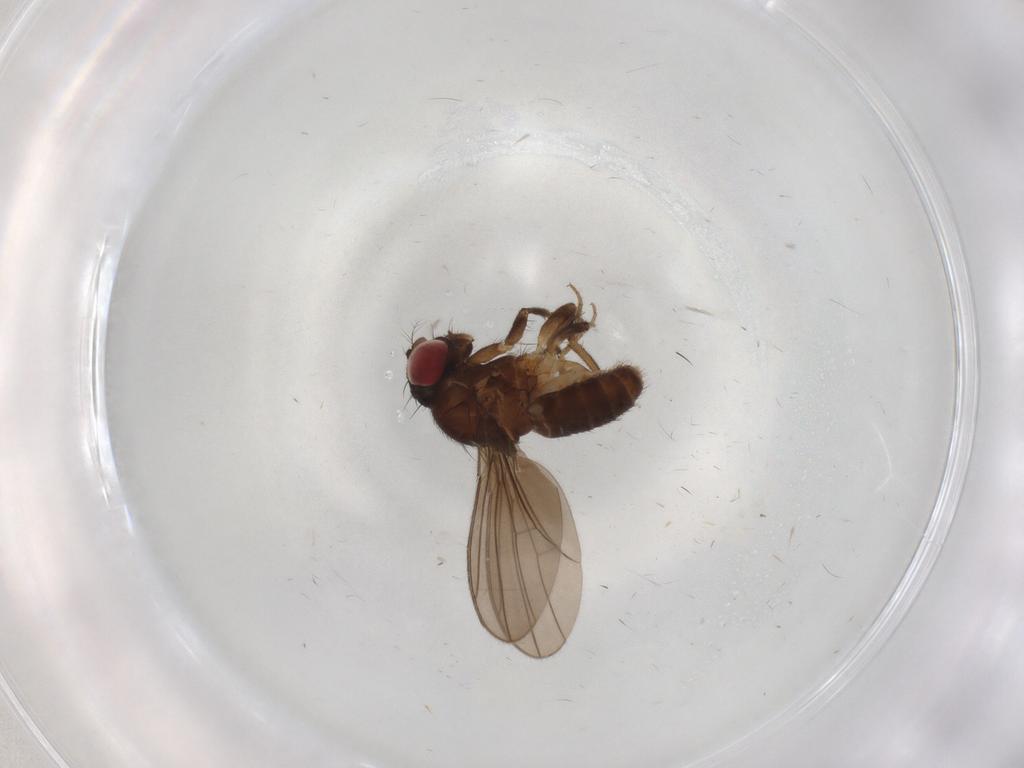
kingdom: Animalia
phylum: Arthropoda
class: Insecta
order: Diptera
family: Drosophilidae
